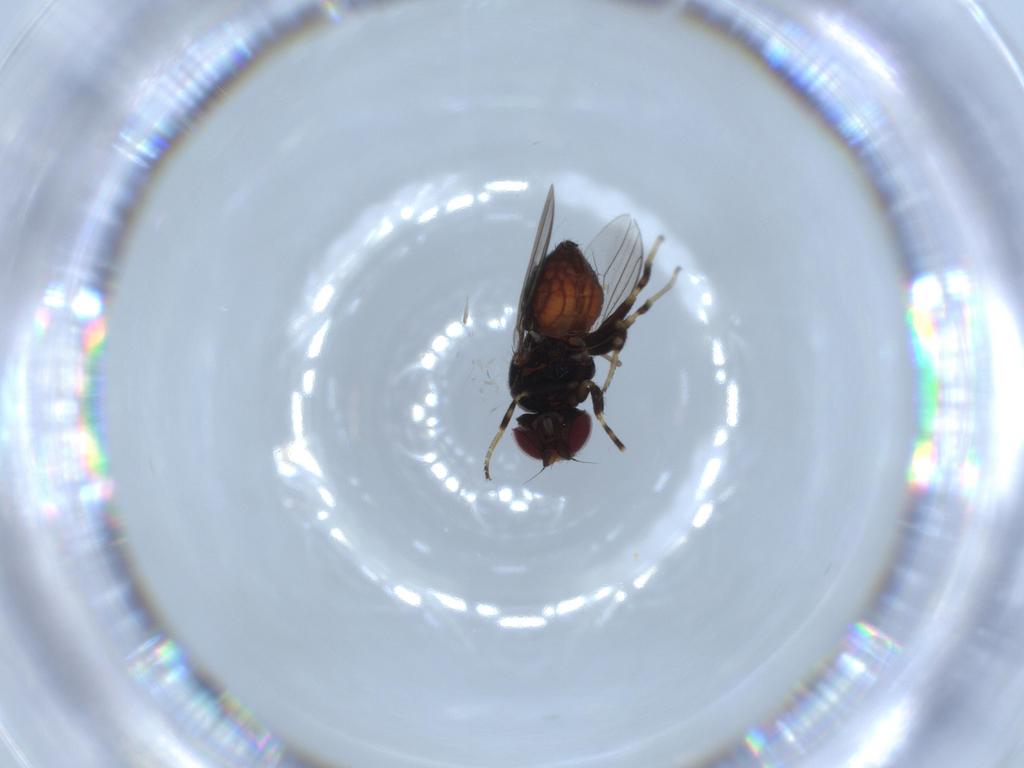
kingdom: Animalia
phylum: Arthropoda
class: Insecta
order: Diptera
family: Chloropidae
